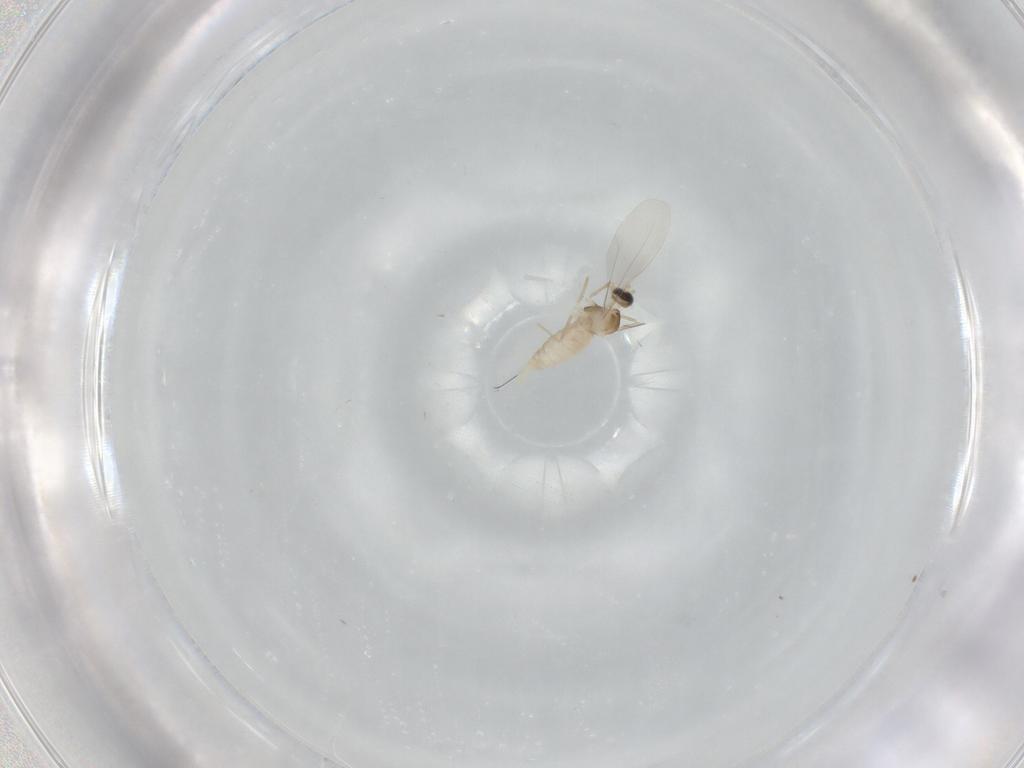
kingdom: Animalia
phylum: Arthropoda
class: Insecta
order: Diptera
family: Cecidomyiidae
